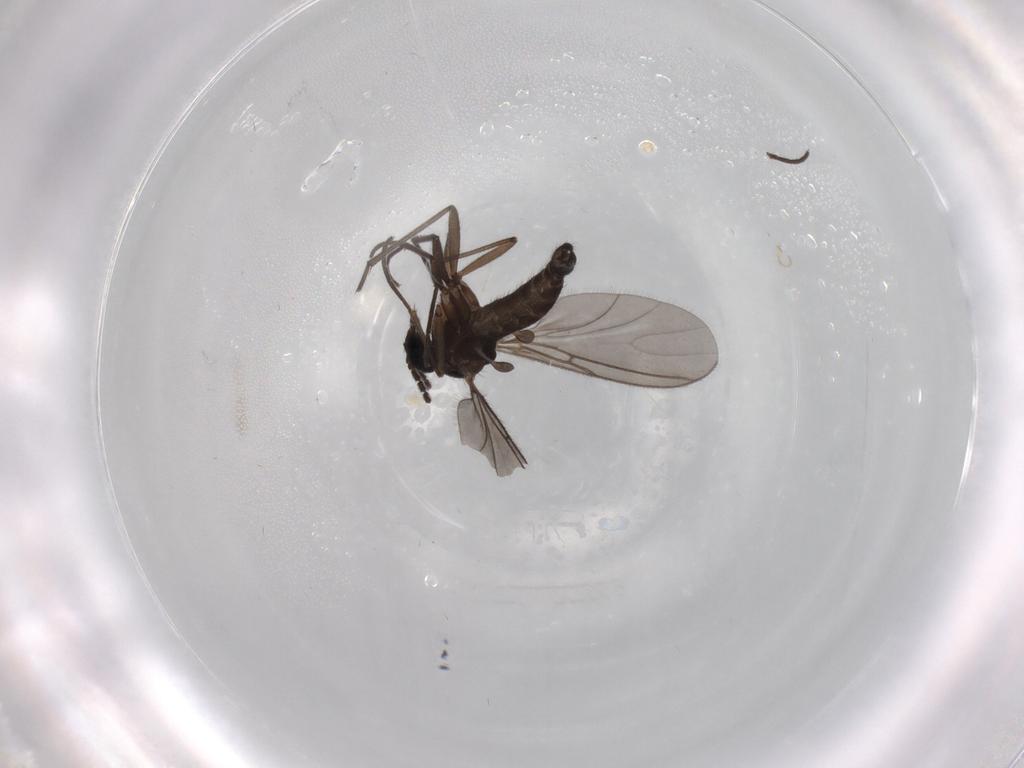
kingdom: Animalia
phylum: Arthropoda
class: Insecta
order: Diptera
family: Sciaridae
